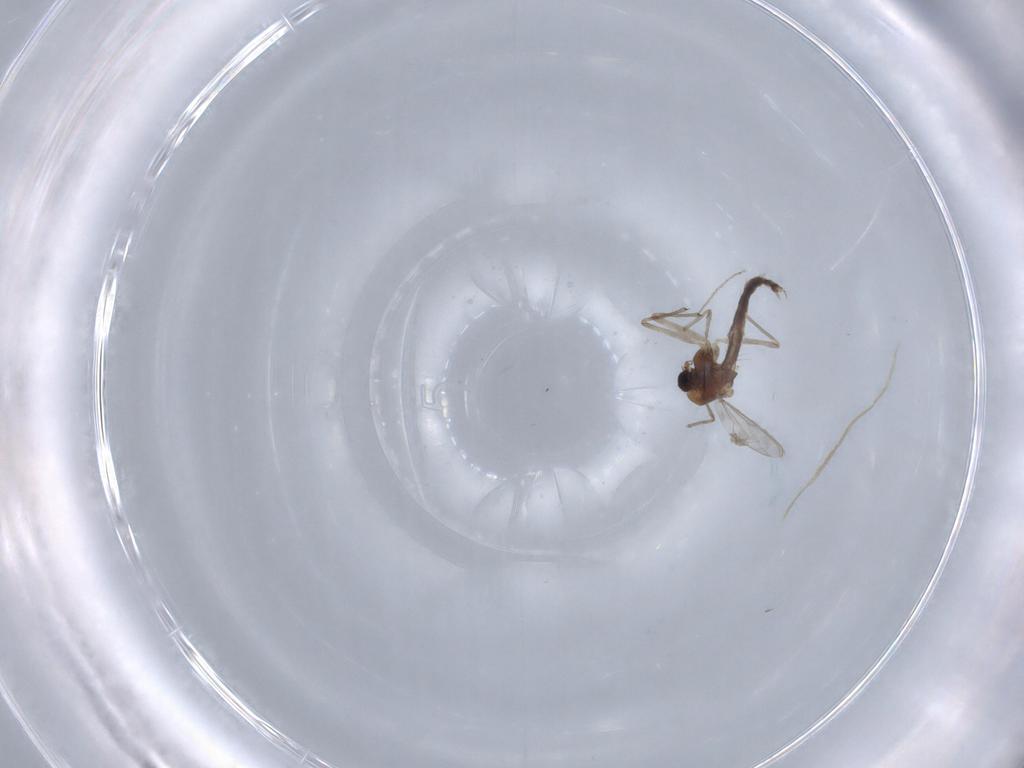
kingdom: Animalia
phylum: Arthropoda
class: Insecta
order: Diptera
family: Chironomidae
